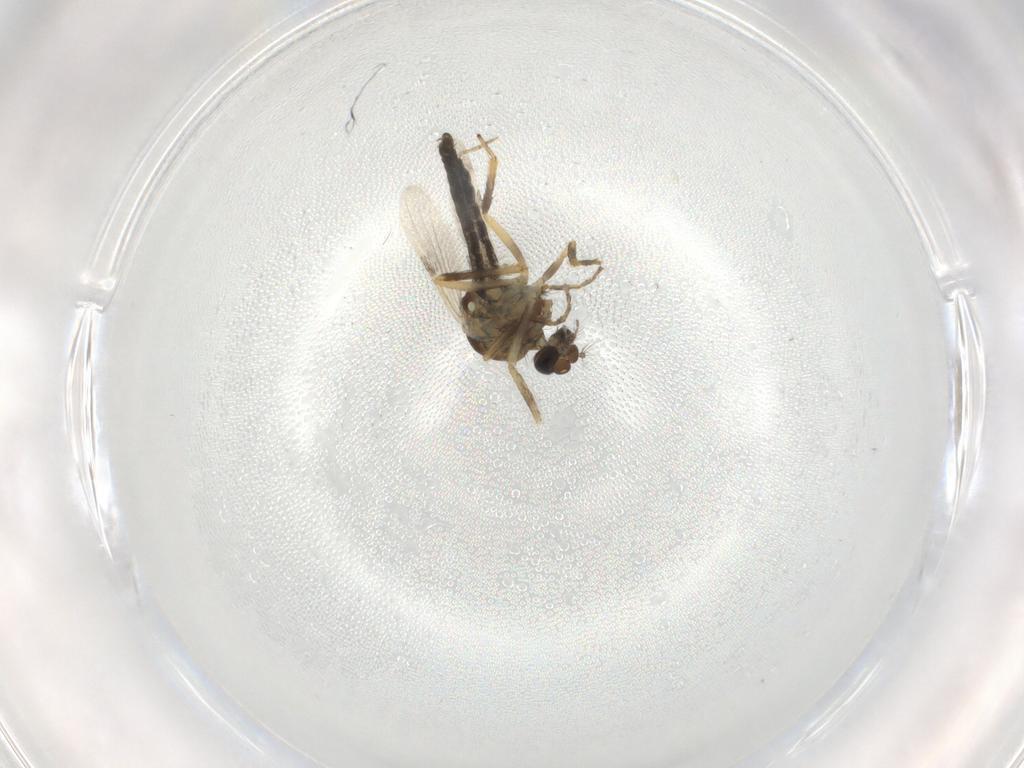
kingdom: Animalia
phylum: Arthropoda
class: Insecta
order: Diptera
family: Ceratopogonidae
